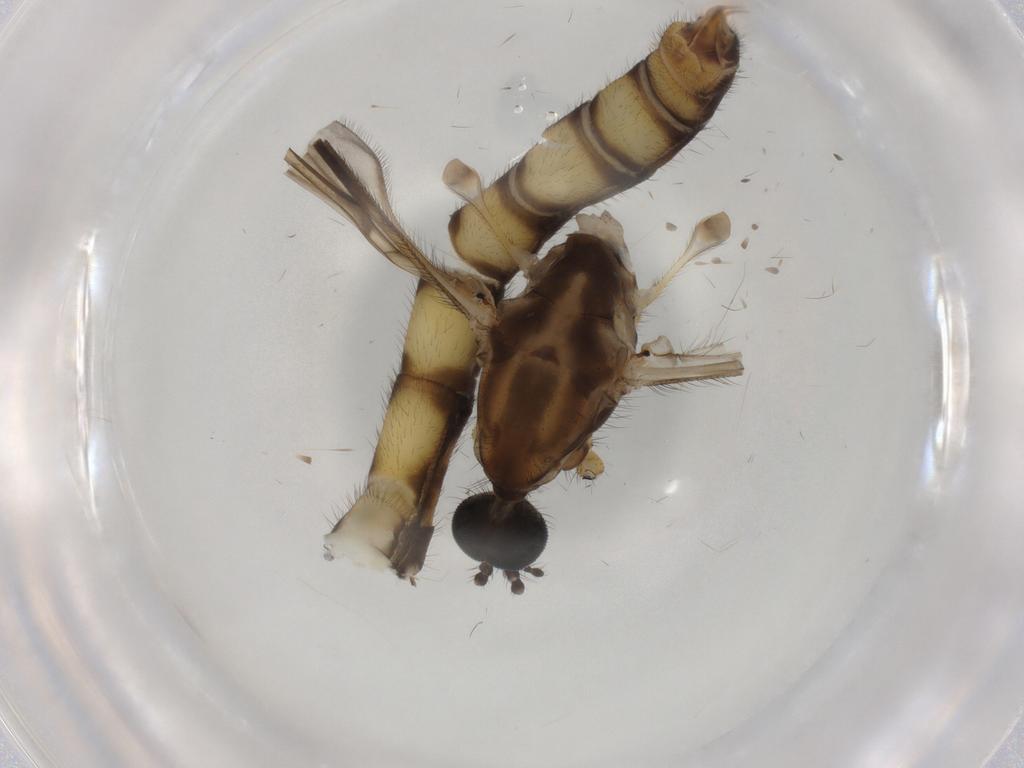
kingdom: Animalia
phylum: Arthropoda
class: Insecta
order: Diptera
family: Limoniidae
